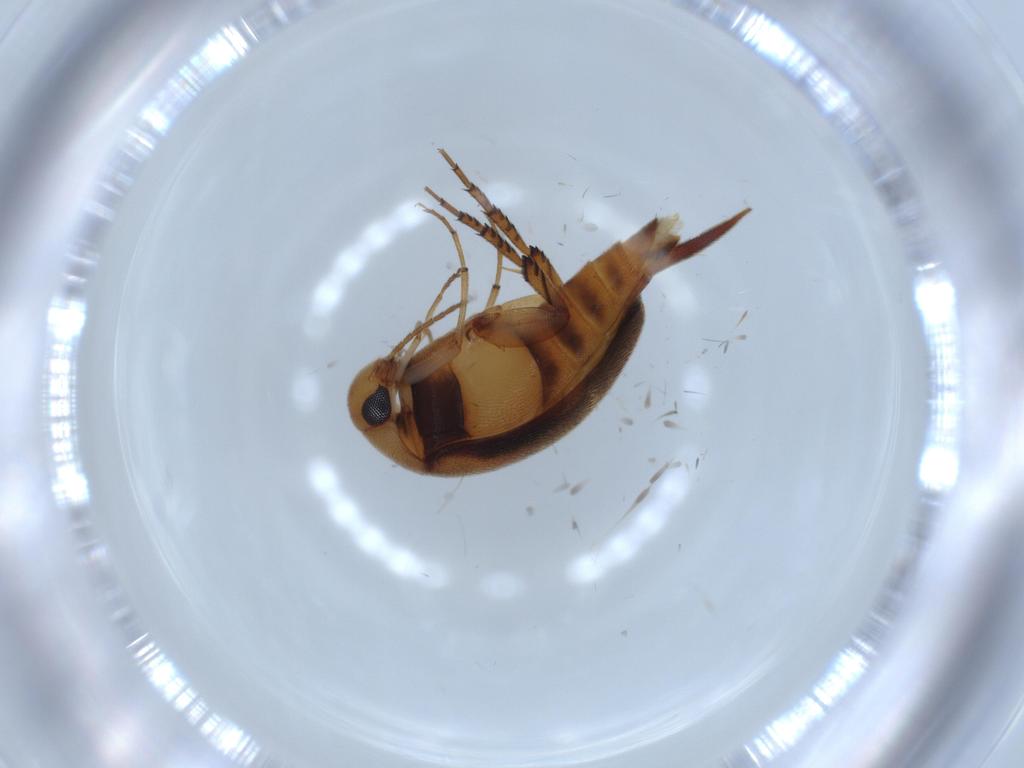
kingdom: Animalia
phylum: Arthropoda
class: Insecta
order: Coleoptera
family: Mordellidae
